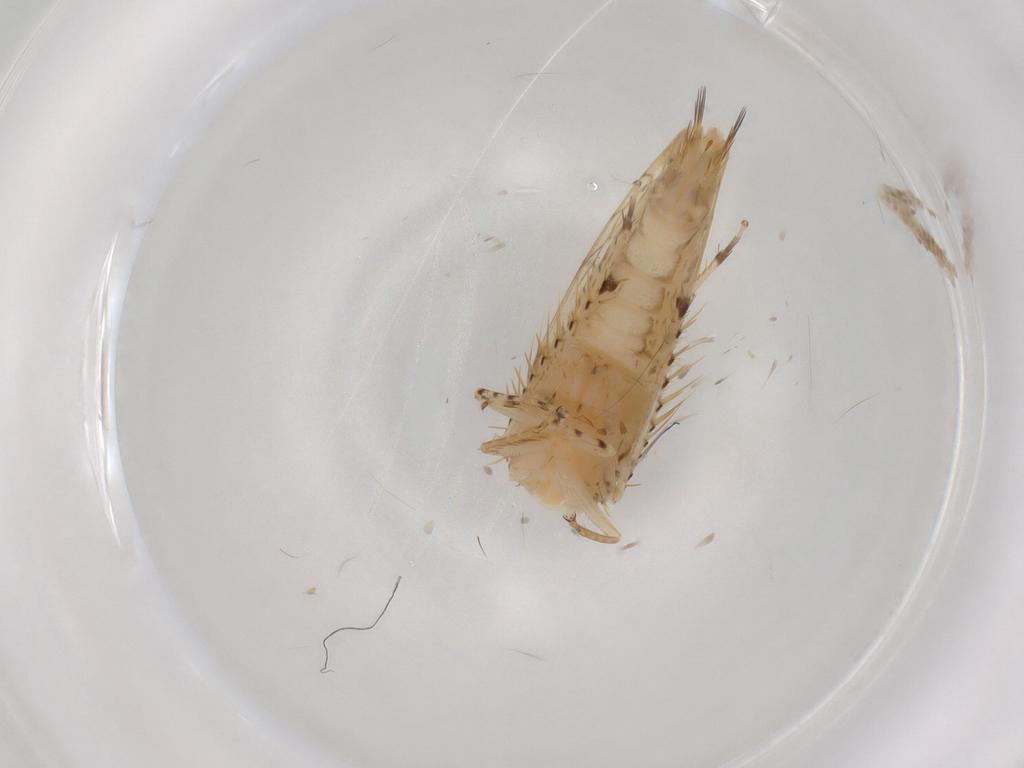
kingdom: Animalia
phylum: Arthropoda
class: Insecta
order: Hemiptera
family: Cicadellidae
